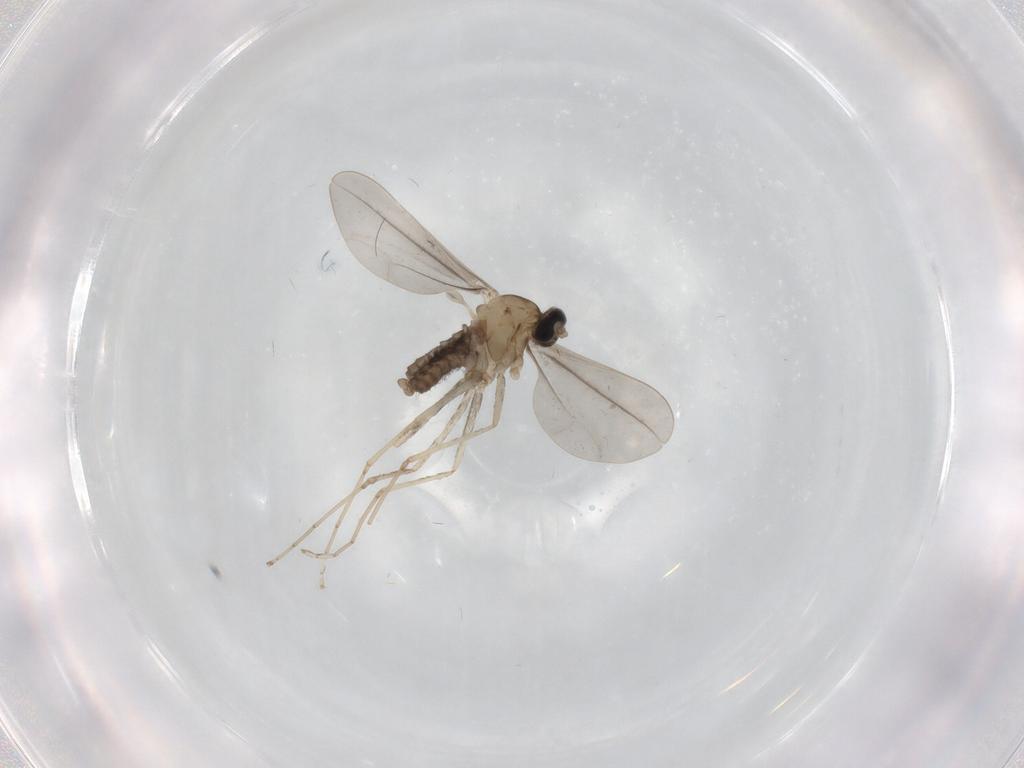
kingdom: Animalia
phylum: Arthropoda
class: Insecta
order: Diptera
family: Cecidomyiidae
